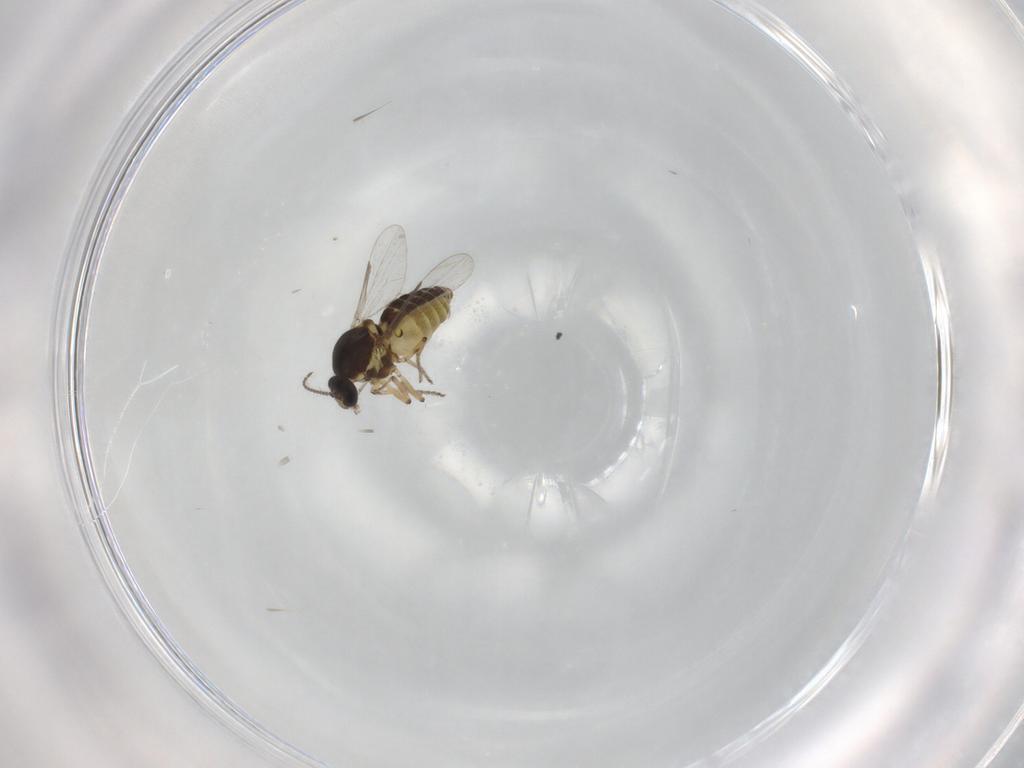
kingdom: Animalia
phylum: Arthropoda
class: Insecta
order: Diptera
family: Ceratopogonidae
